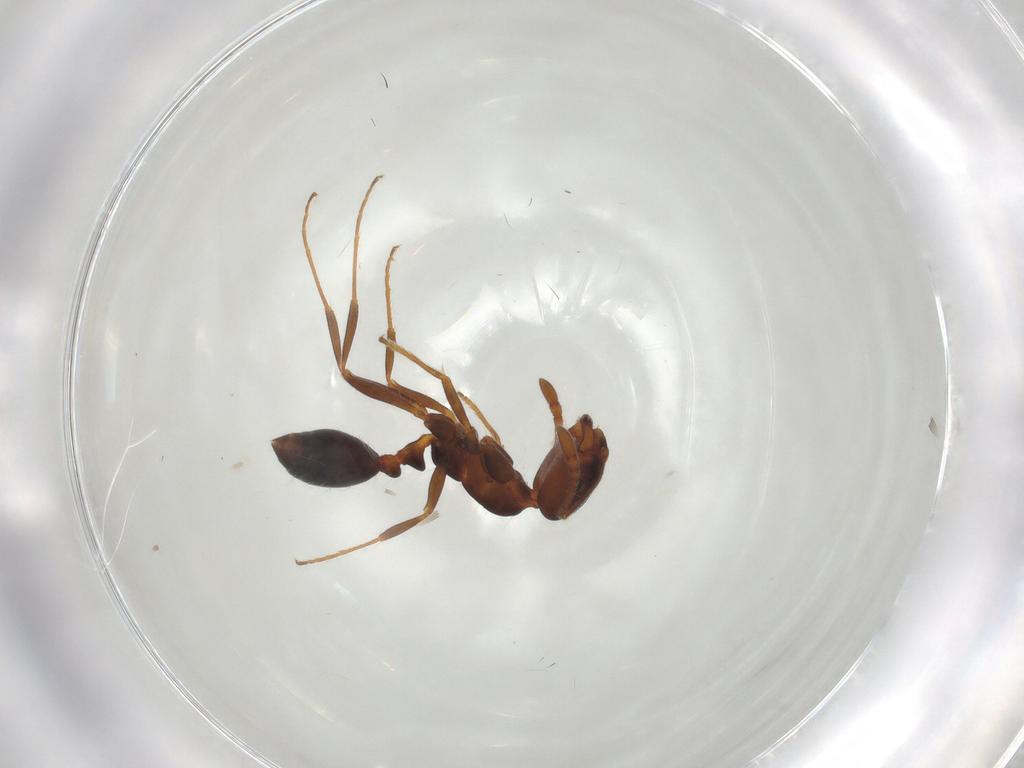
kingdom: Animalia
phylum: Arthropoda
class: Insecta
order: Hymenoptera
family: Formicidae
